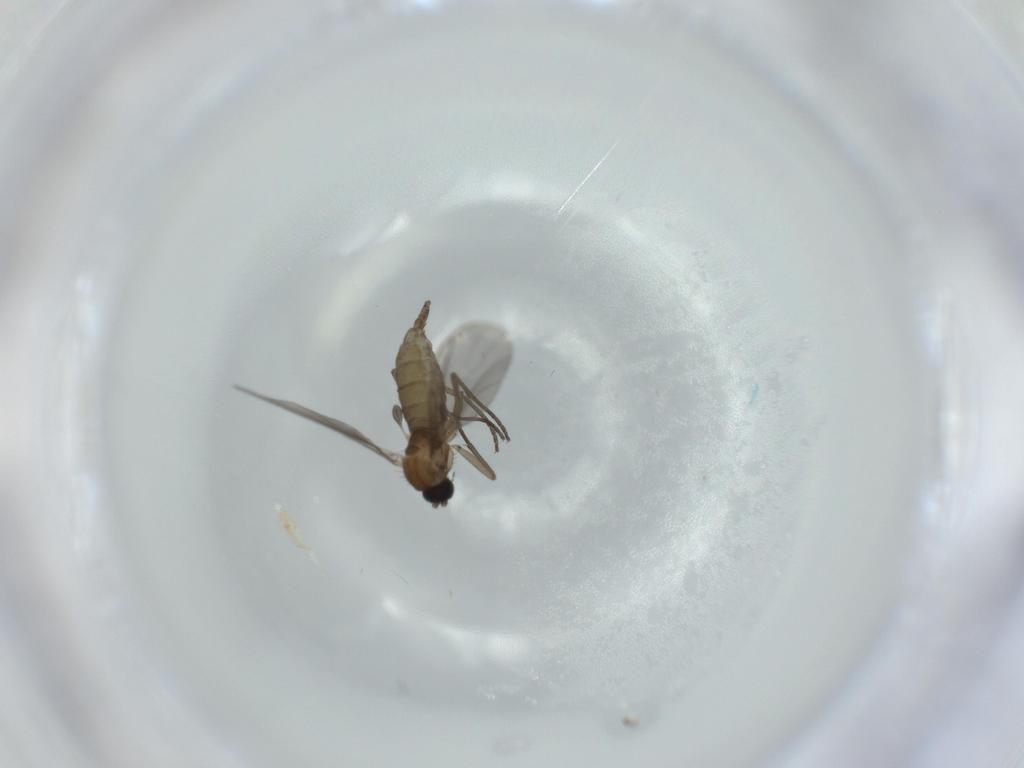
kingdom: Animalia
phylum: Arthropoda
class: Insecta
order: Diptera
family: Sciaridae
